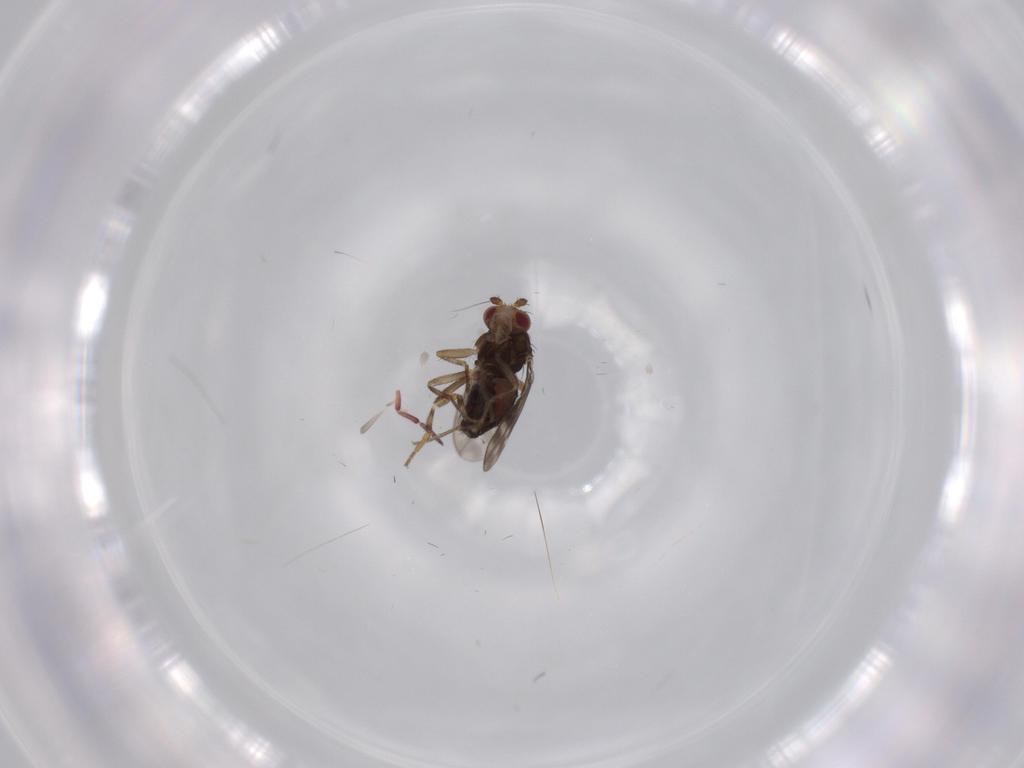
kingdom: Animalia
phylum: Arthropoda
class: Insecta
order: Diptera
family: Sphaeroceridae
